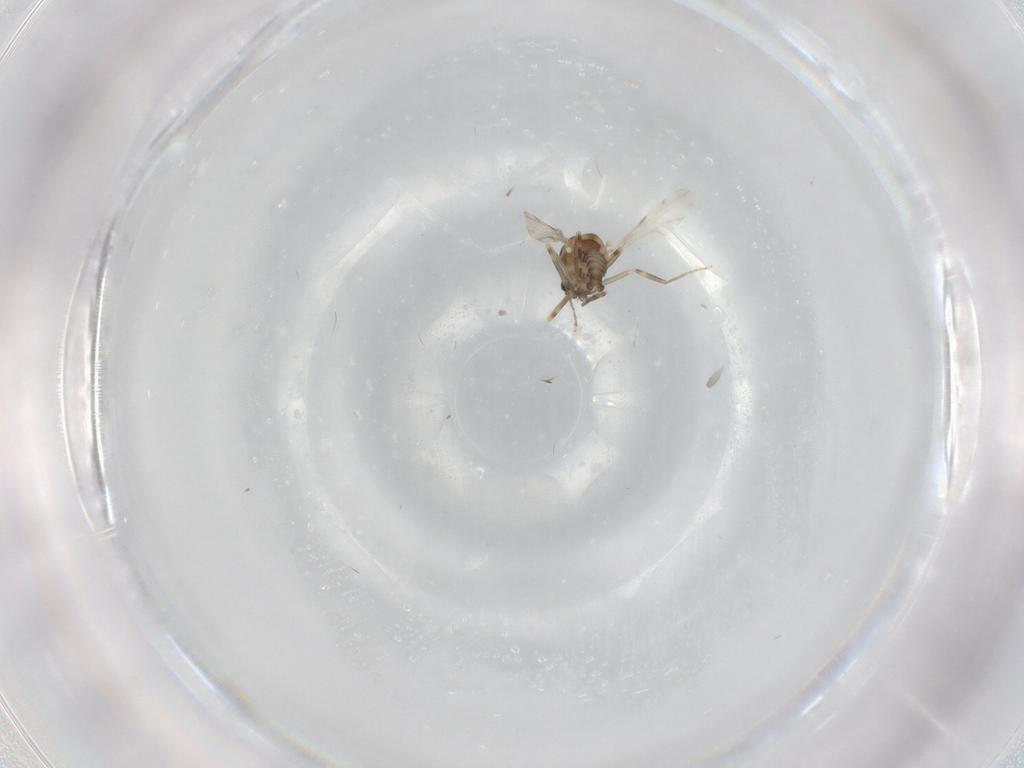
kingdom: Animalia
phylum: Arthropoda
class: Insecta
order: Diptera
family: Ceratopogonidae
